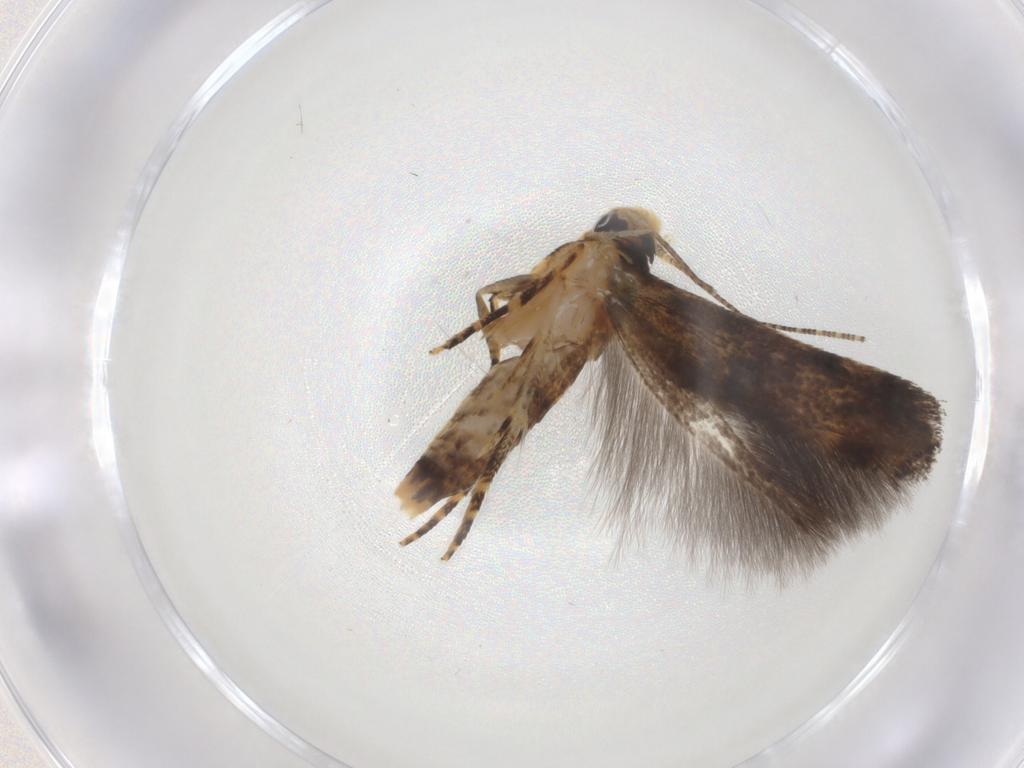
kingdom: Animalia
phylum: Arthropoda
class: Insecta
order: Lepidoptera
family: Momphidae
